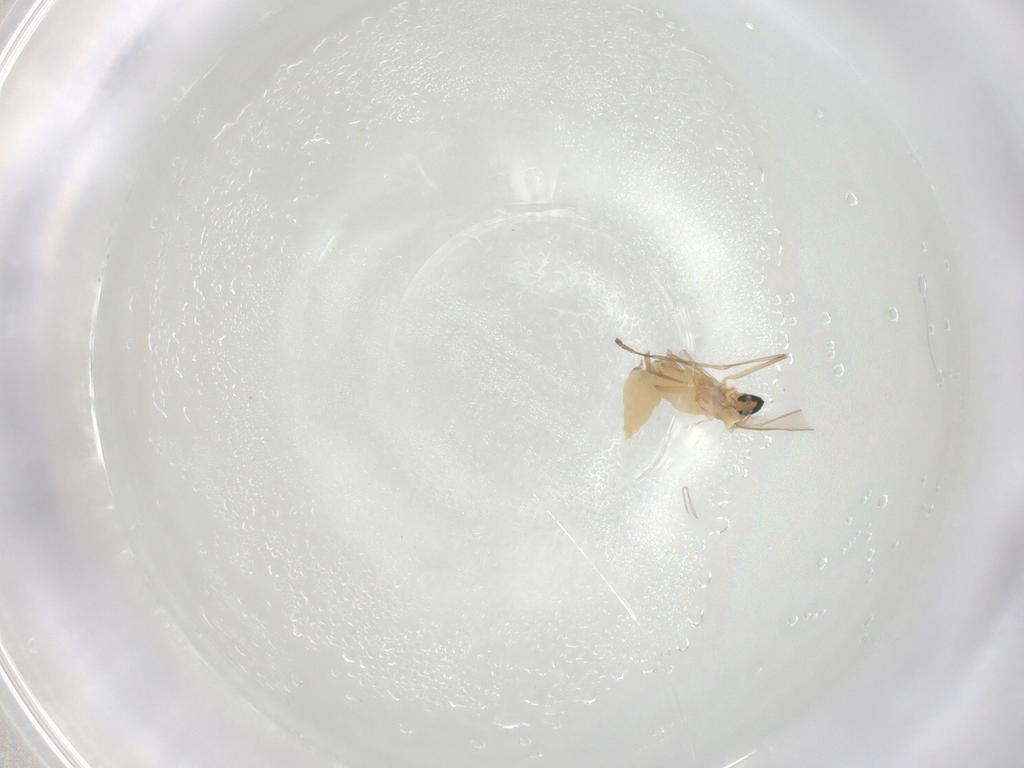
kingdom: Animalia
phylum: Arthropoda
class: Insecta
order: Diptera
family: Cecidomyiidae
